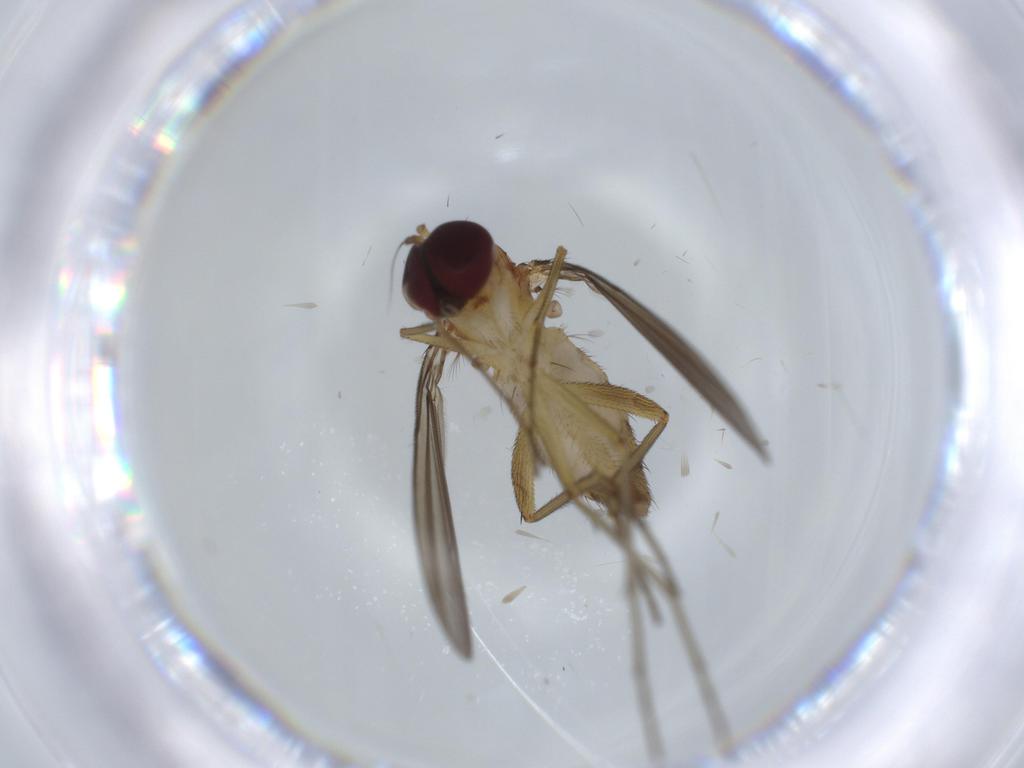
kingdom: Animalia
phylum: Arthropoda
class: Insecta
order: Diptera
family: Dolichopodidae
